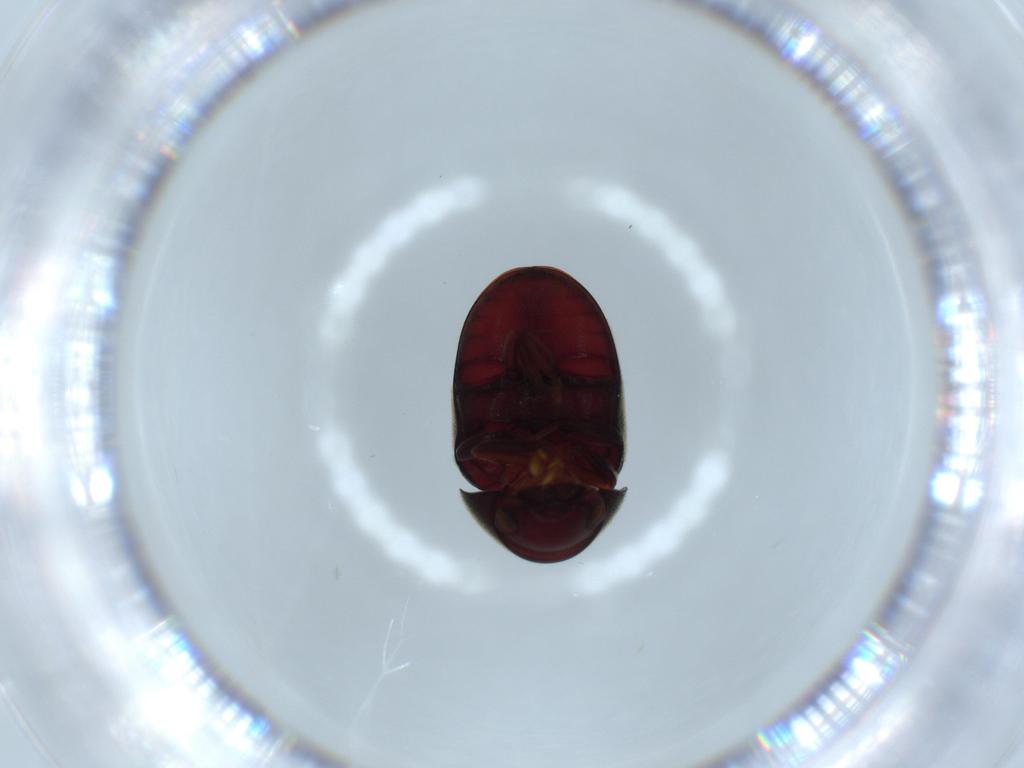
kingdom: Animalia
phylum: Arthropoda
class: Insecta
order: Coleoptera
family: Ptinidae
